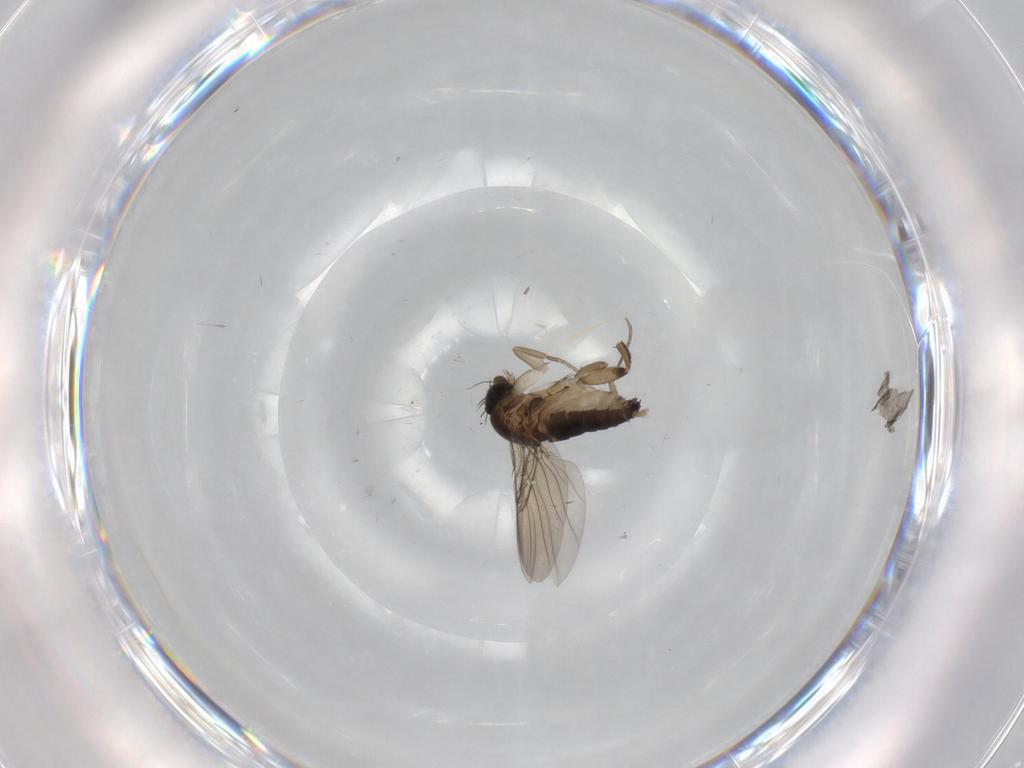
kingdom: Animalia
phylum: Arthropoda
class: Insecta
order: Diptera
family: Phoridae
